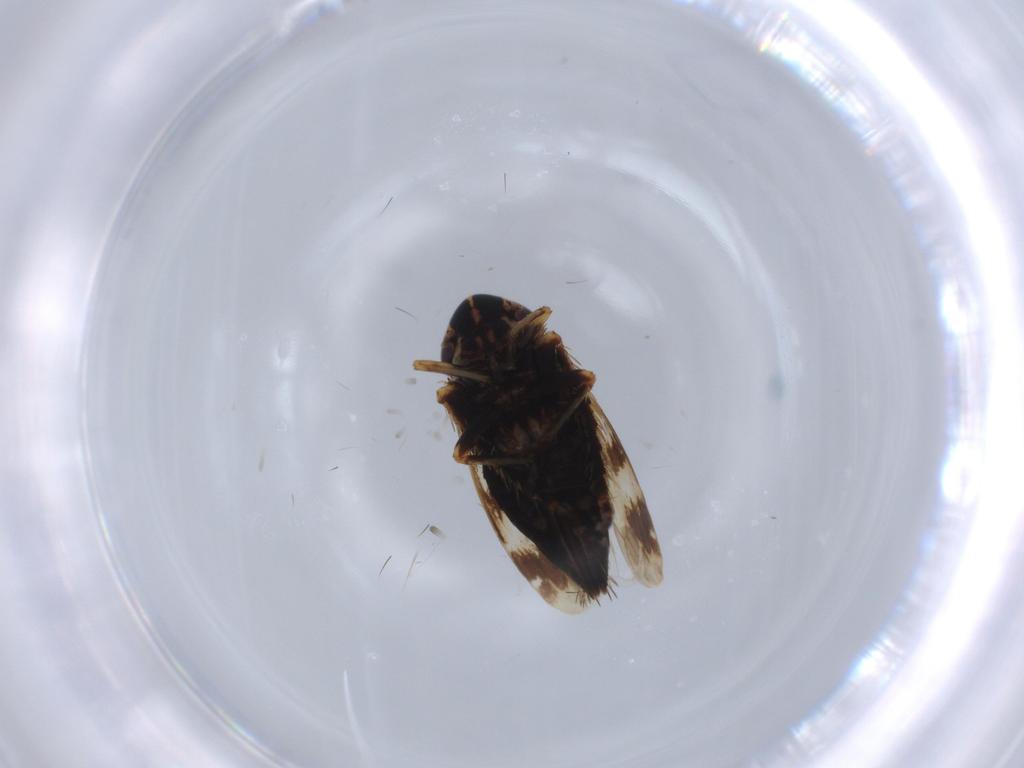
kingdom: Animalia
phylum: Arthropoda
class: Insecta
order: Hemiptera
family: Cicadellidae
